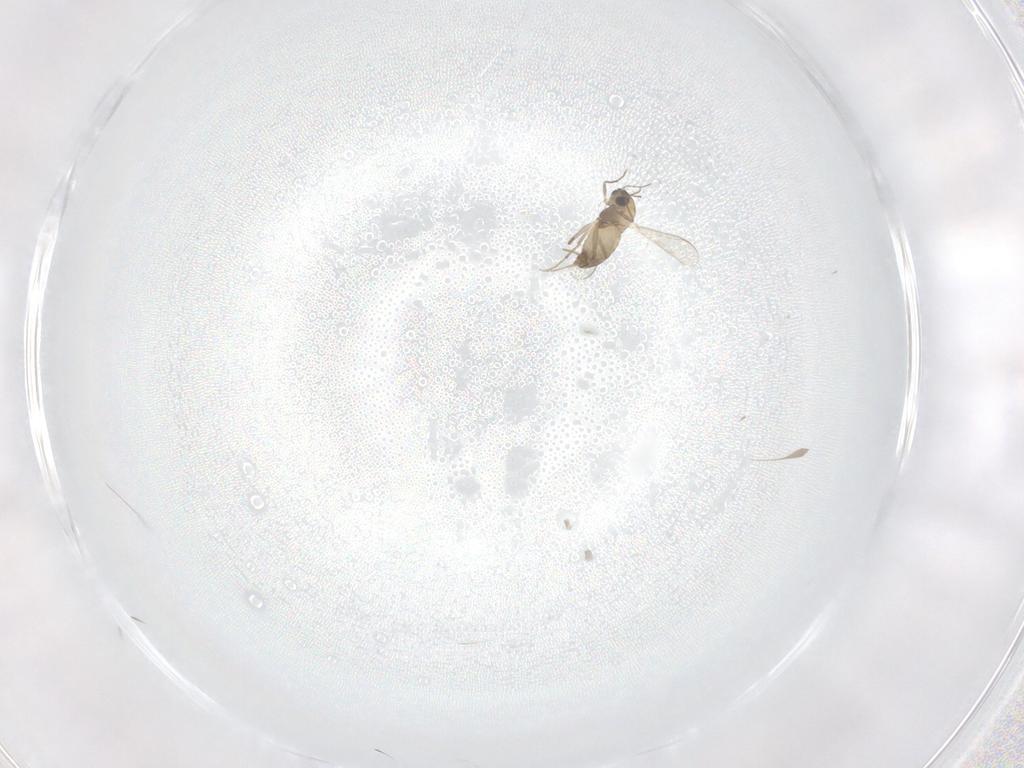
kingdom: Animalia
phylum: Arthropoda
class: Insecta
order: Diptera
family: Chironomidae
